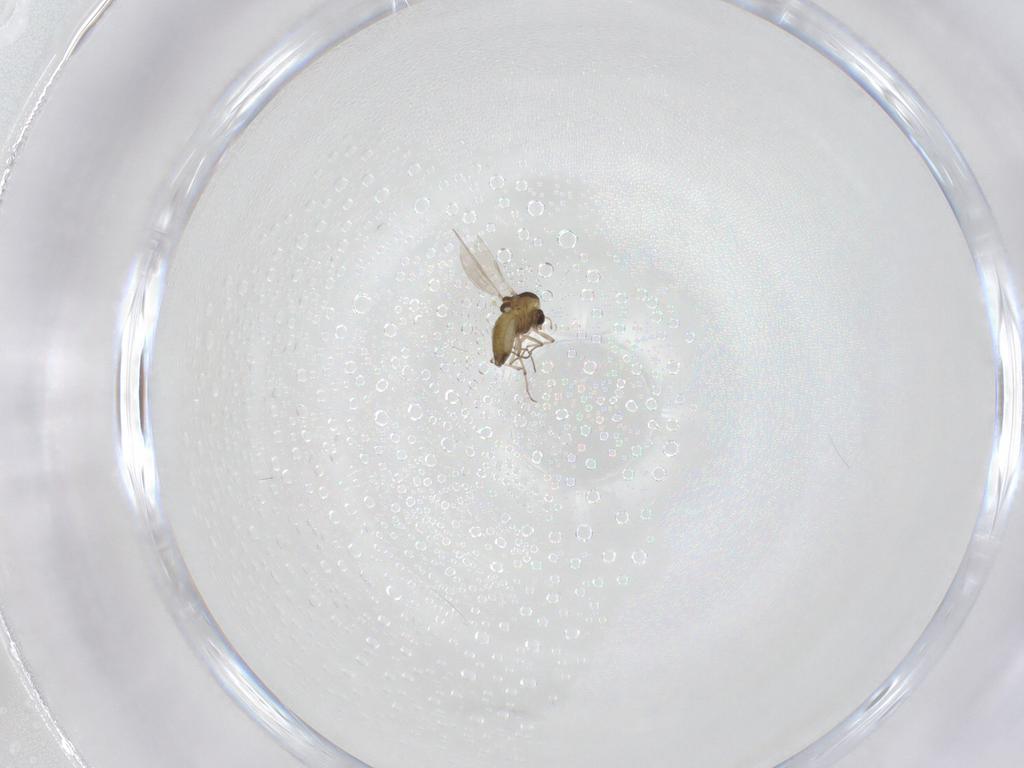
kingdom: Animalia
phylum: Arthropoda
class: Insecta
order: Diptera
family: Chironomidae
